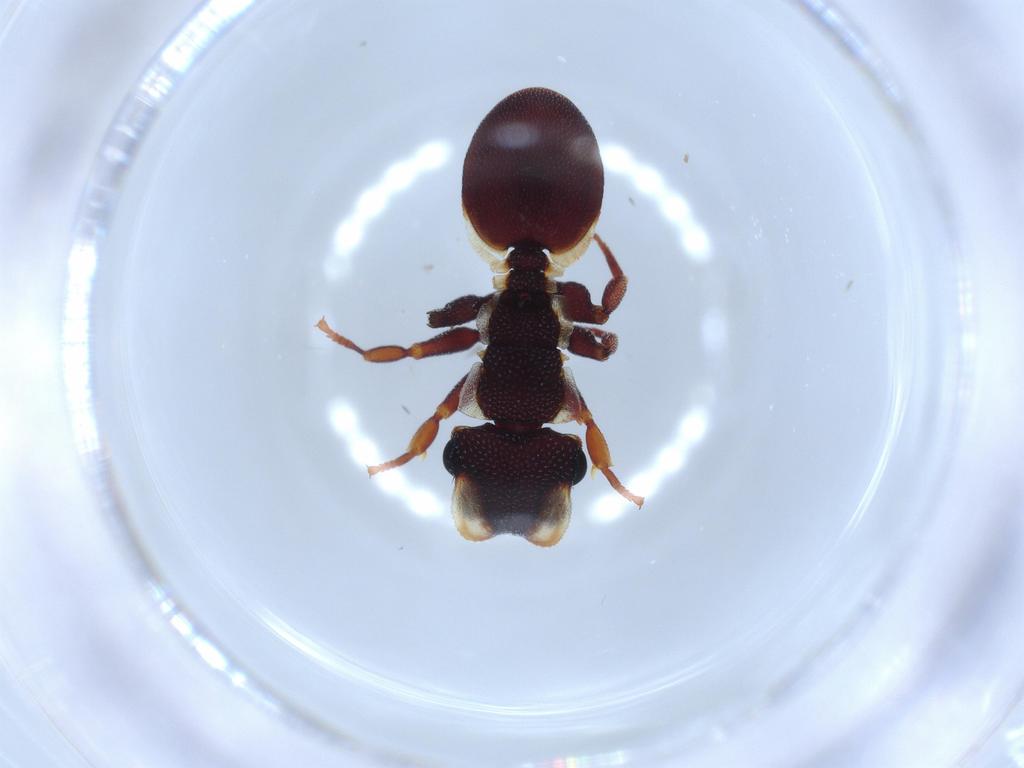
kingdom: Animalia
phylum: Arthropoda
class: Insecta
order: Hymenoptera
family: Formicidae
